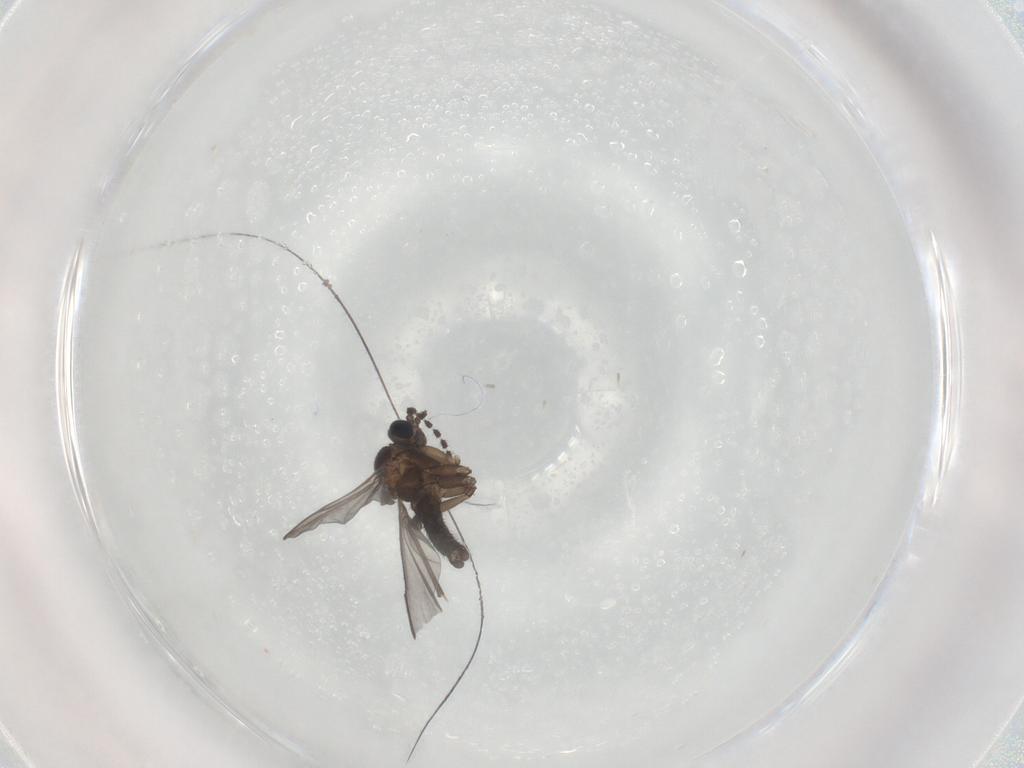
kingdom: Animalia
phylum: Arthropoda
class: Insecta
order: Diptera
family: Sciaridae
